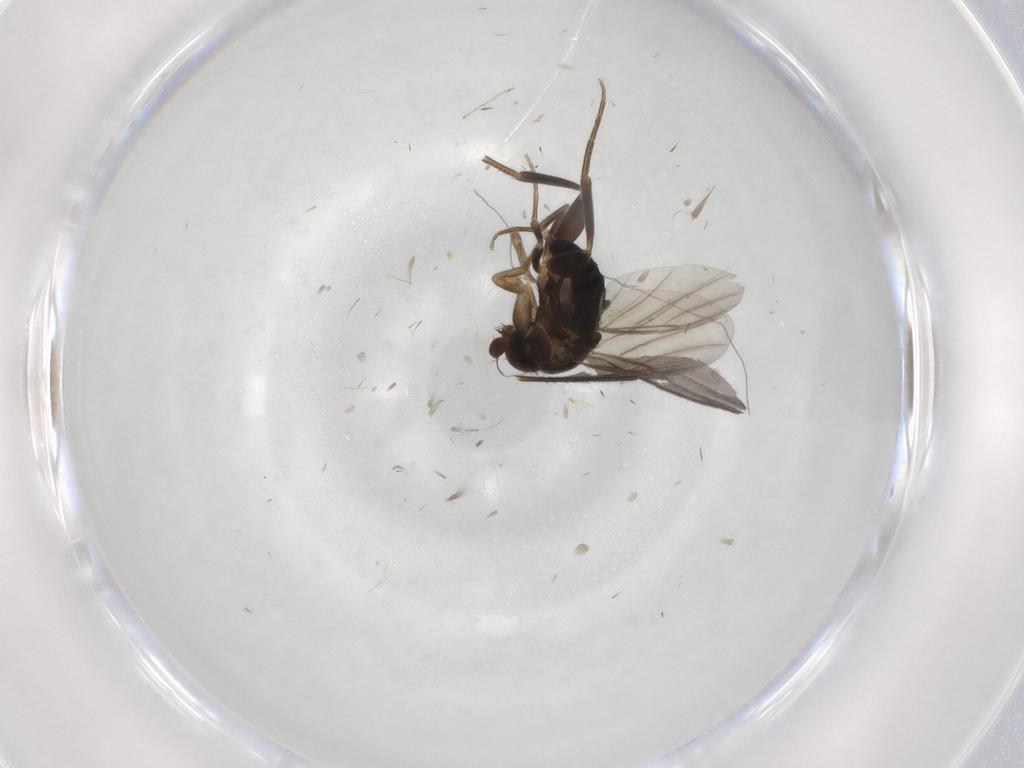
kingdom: Animalia
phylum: Arthropoda
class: Insecta
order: Diptera
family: Phoridae
